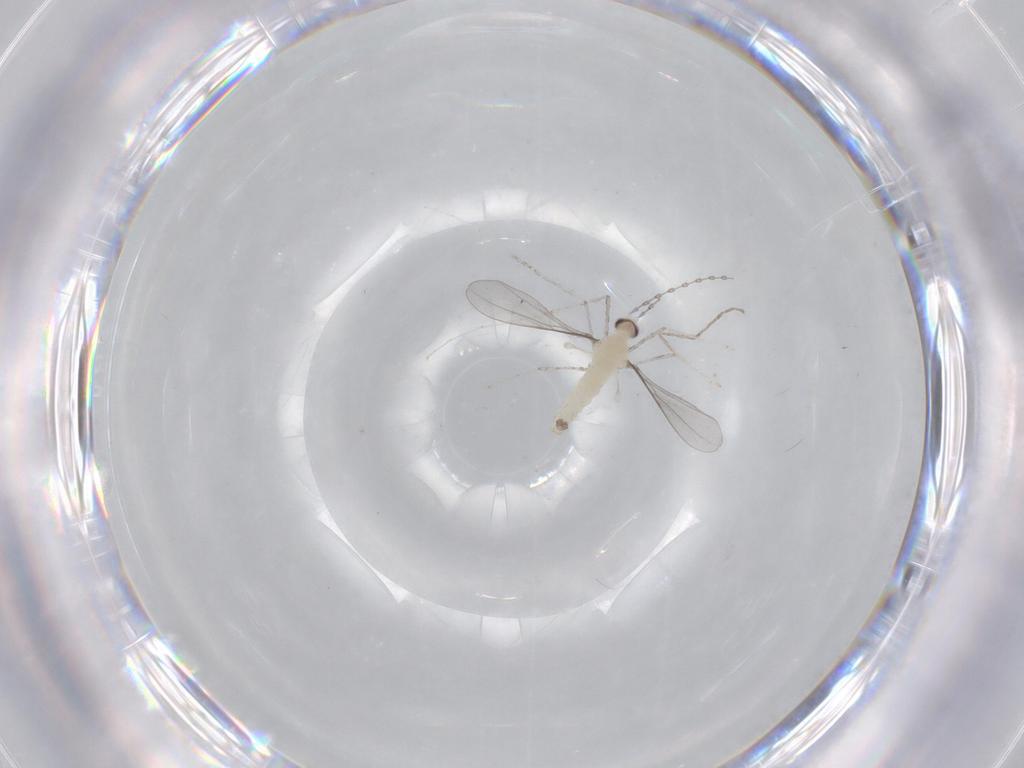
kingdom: Animalia
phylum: Arthropoda
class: Insecta
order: Diptera
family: Cecidomyiidae
